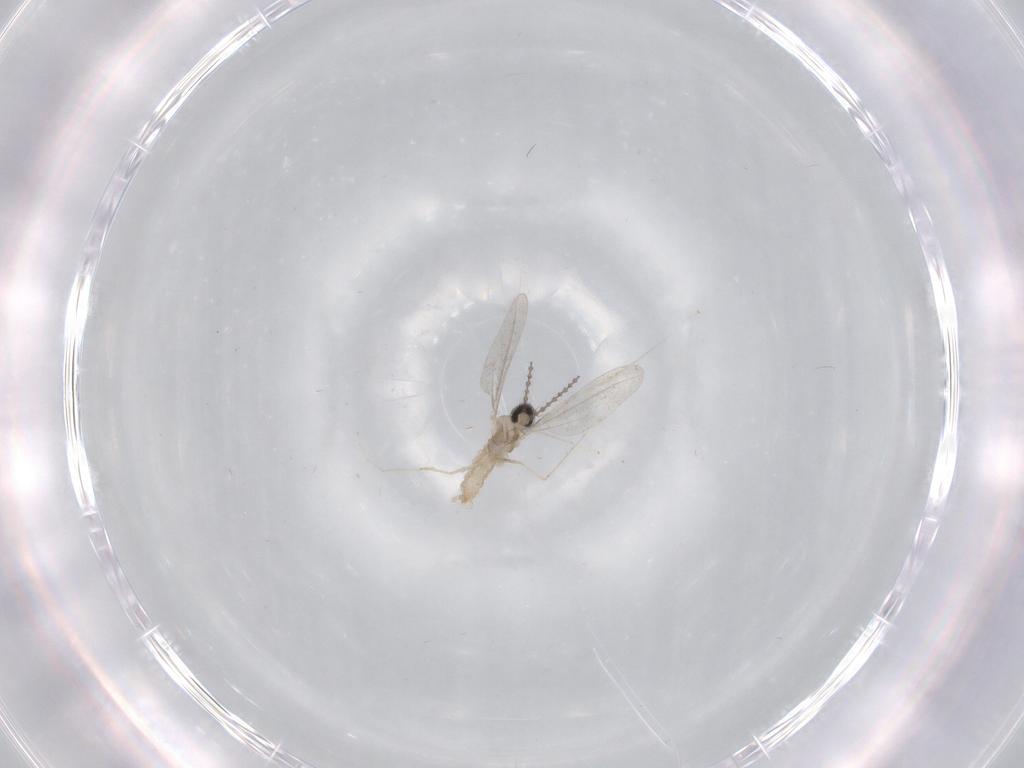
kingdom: Animalia
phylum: Arthropoda
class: Insecta
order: Diptera
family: Cecidomyiidae
